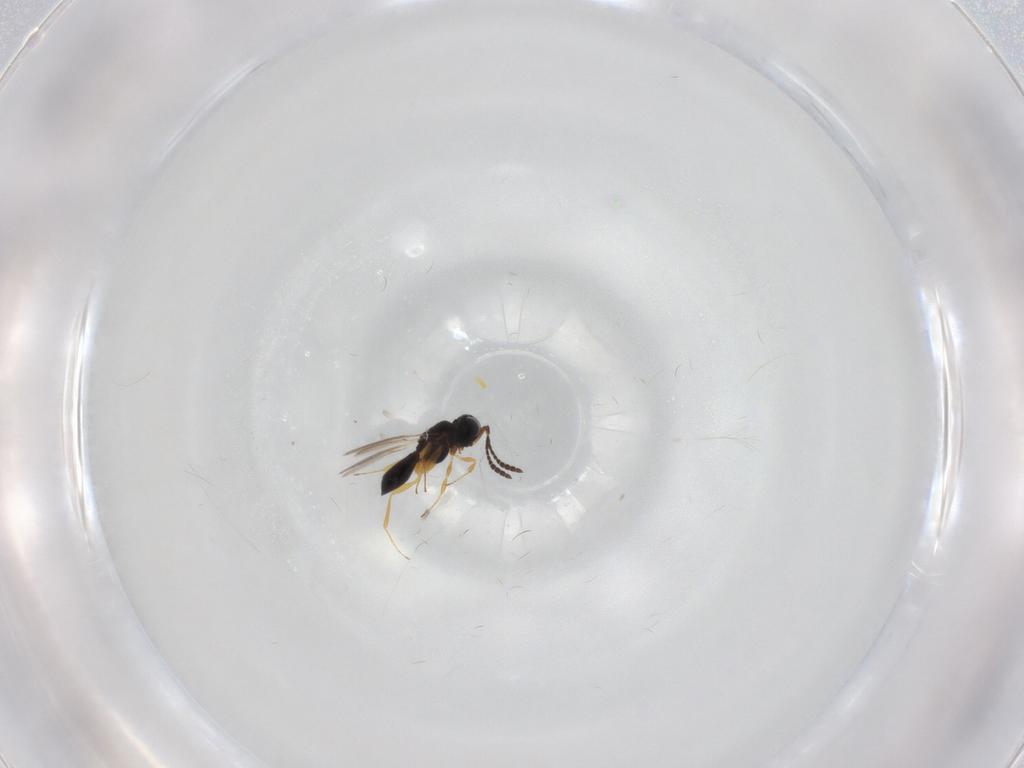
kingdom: Animalia
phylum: Arthropoda
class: Insecta
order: Hymenoptera
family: Scelionidae
